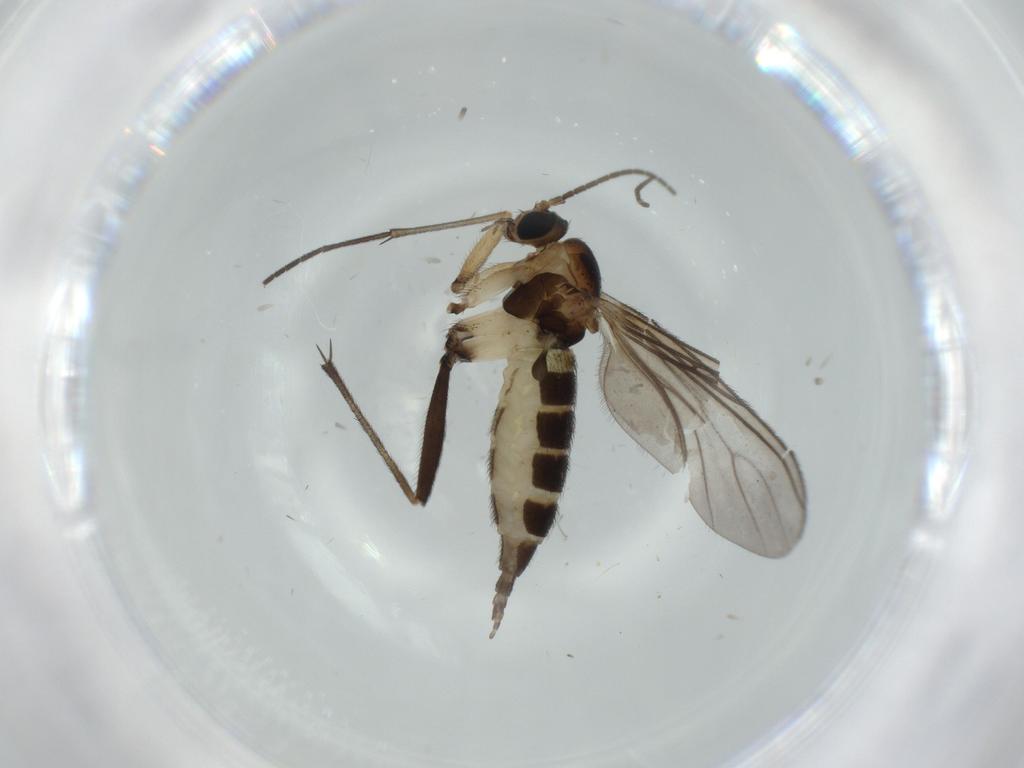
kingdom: Animalia
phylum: Arthropoda
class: Insecta
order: Diptera
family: Sciaridae
